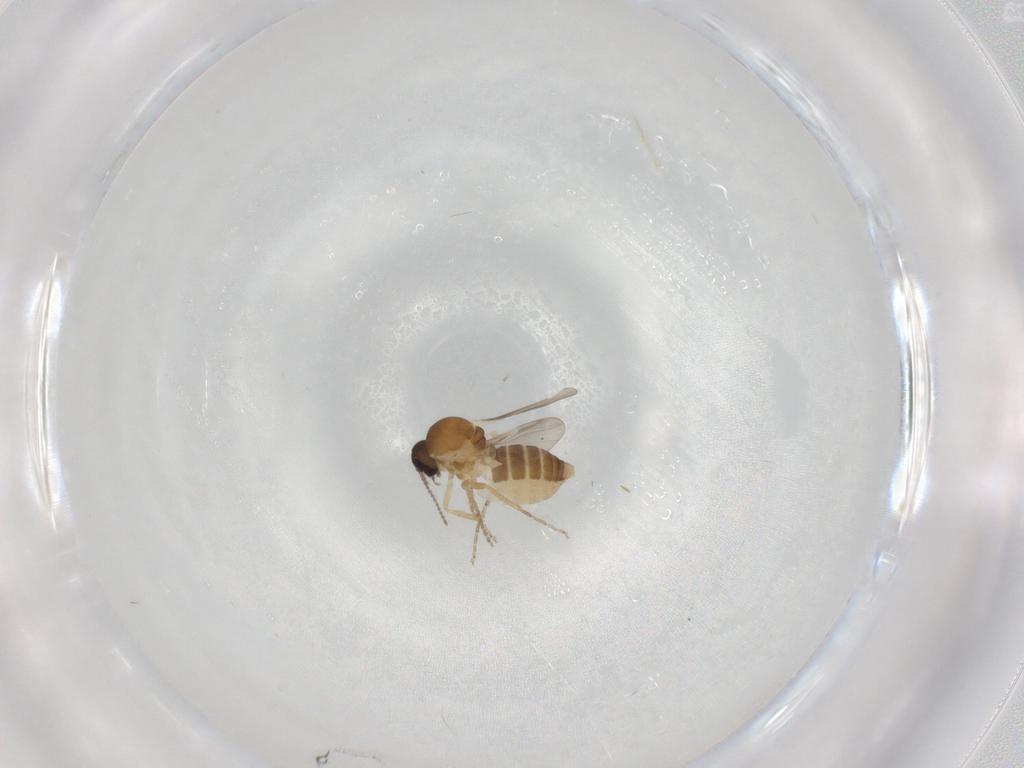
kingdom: Animalia
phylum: Arthropoda
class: Insecta
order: Diptera
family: Ceratopogonidae
